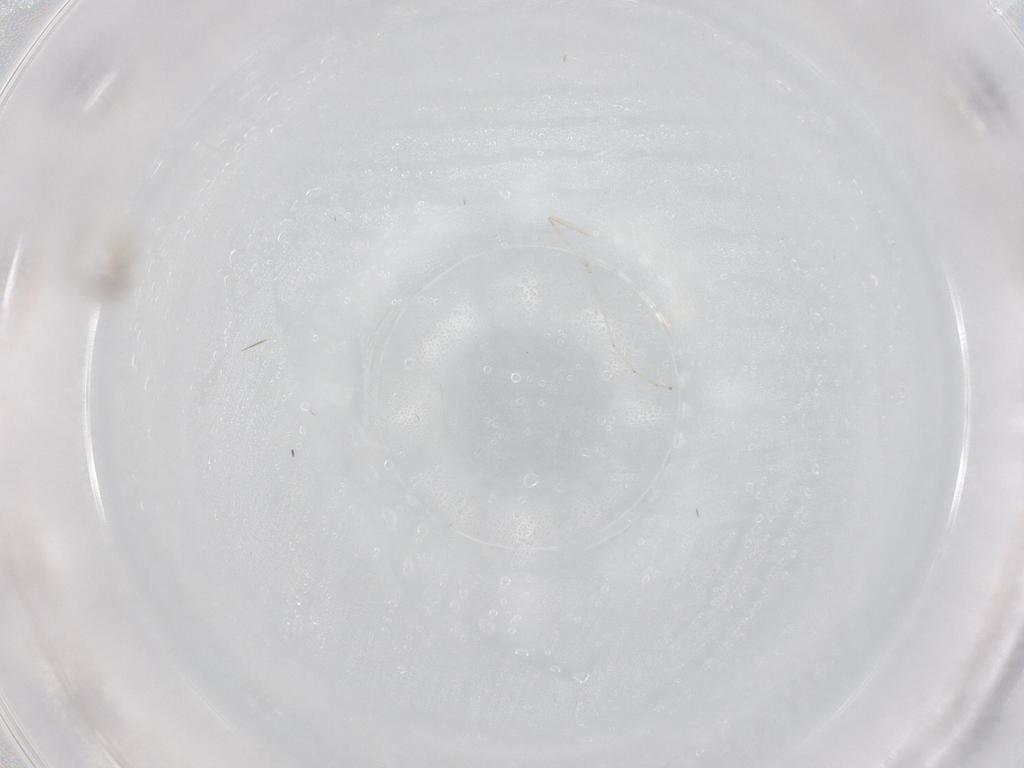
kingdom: Animalia
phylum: Arthropoda
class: Insecta
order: Diptera
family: Cecidomyiidae
